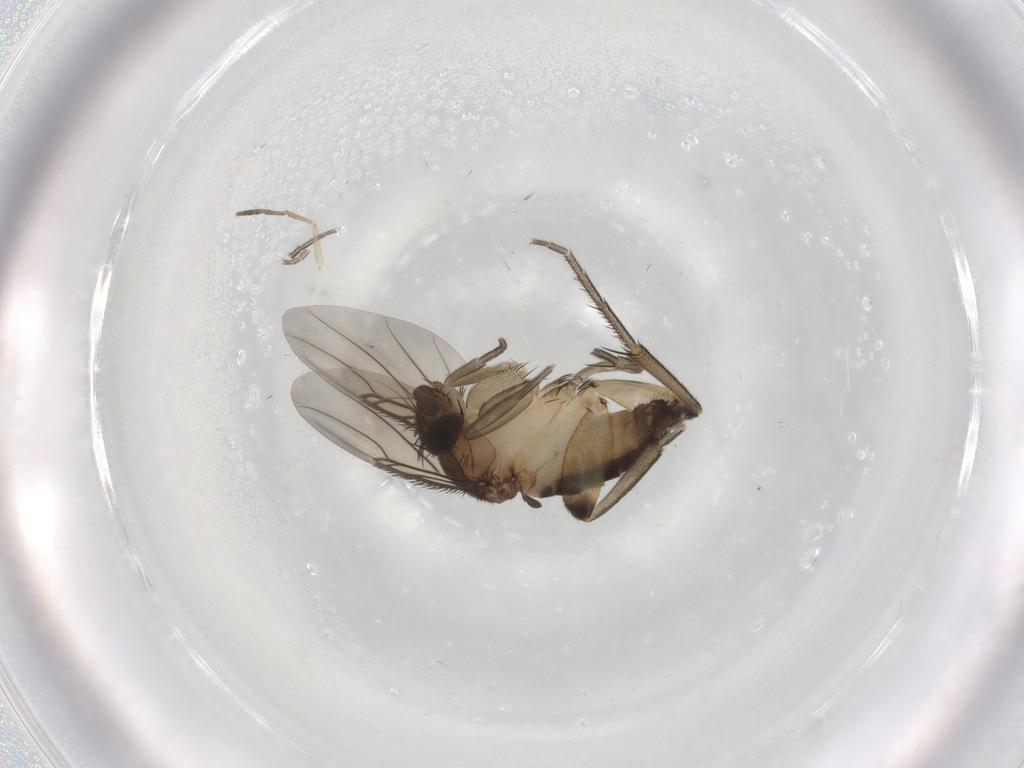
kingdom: Animalia
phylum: Arthropoda
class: Insecta
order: Diptera
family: Phoridae
